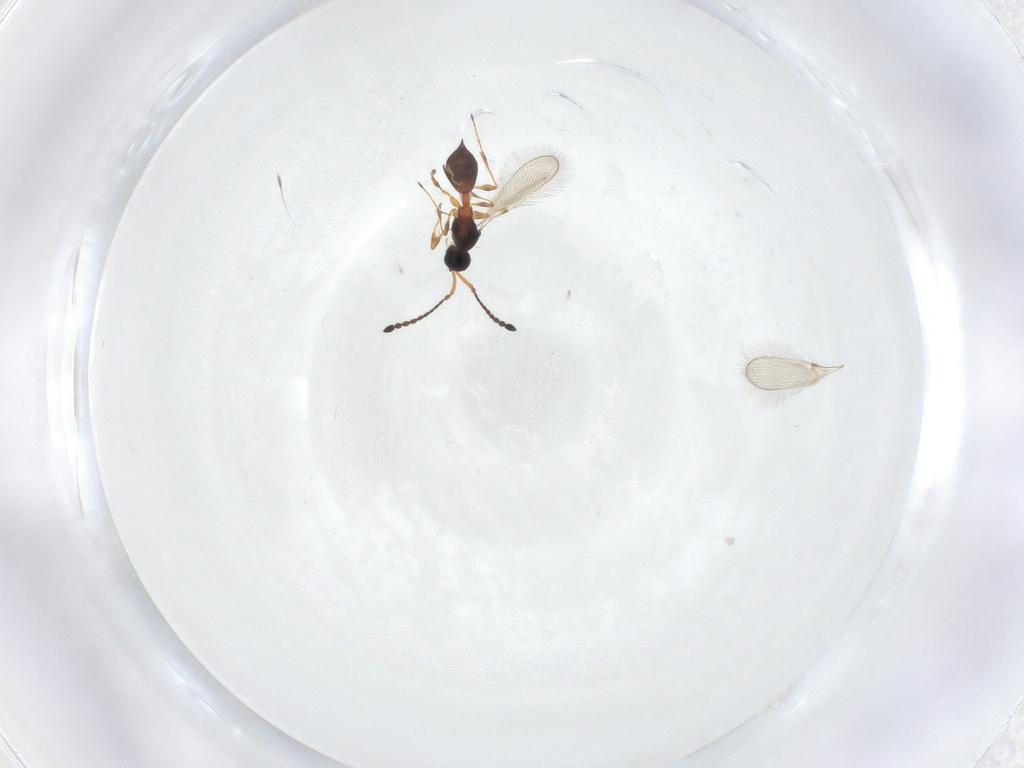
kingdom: Animalia
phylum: Arthropoda
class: Insecta
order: Hymenoptera
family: Diapriidae
